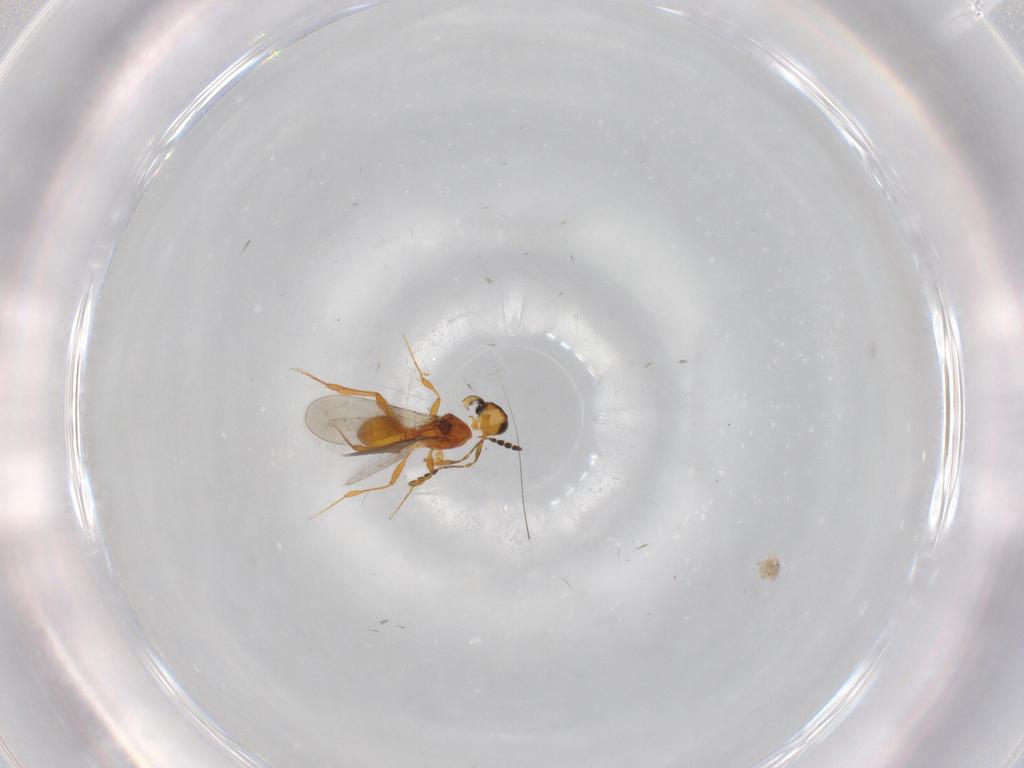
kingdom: Animalia
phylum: Arthropoda
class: Insecta
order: Hymenoptera
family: Platygastridae
